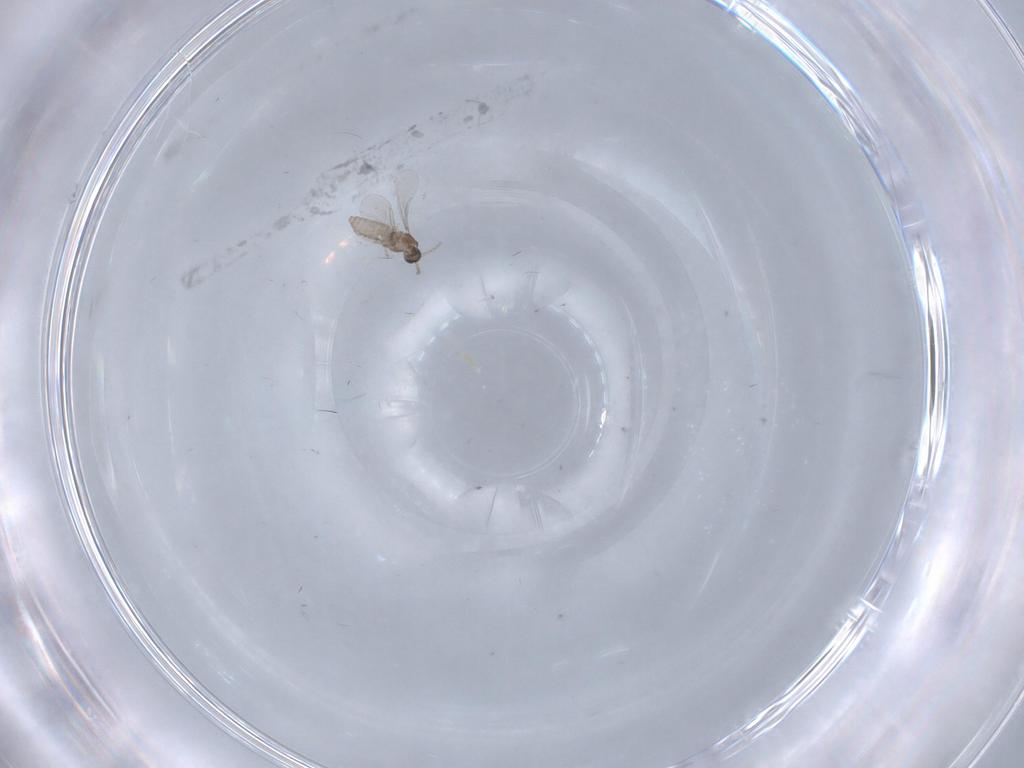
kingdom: Animalia
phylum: Arthropoda
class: Insecta
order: Diptera
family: Cecidomyiidae
